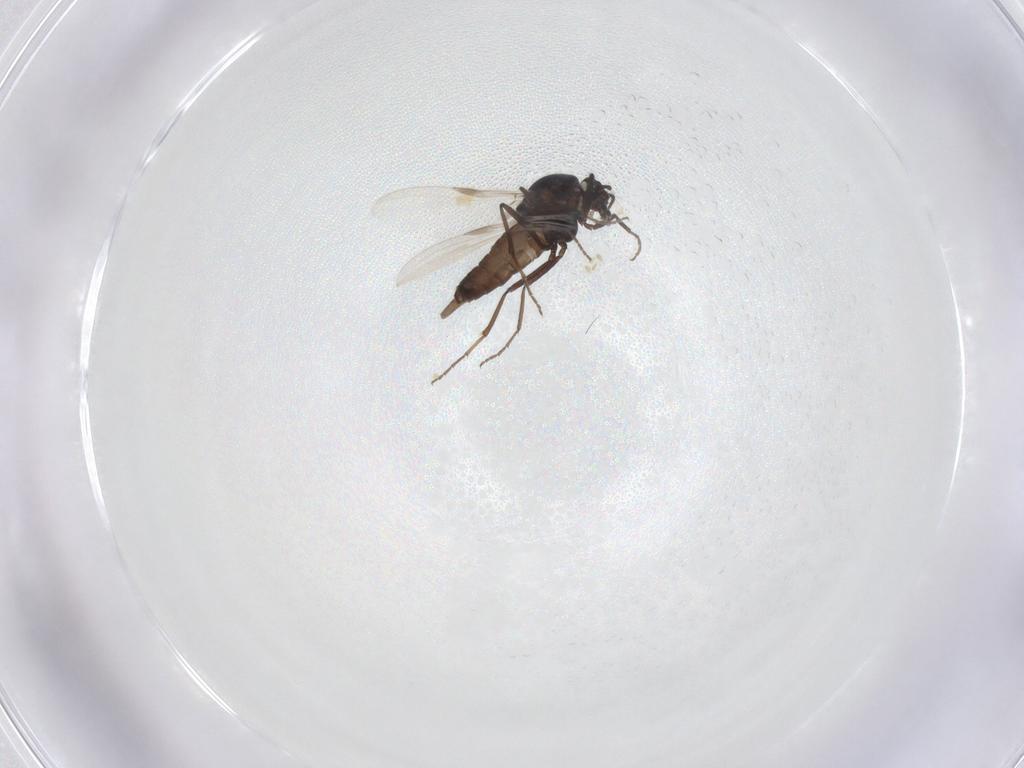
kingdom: Animalia
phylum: Arthropoda
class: Insecta
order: Diptera
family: Ceratopogonidae
